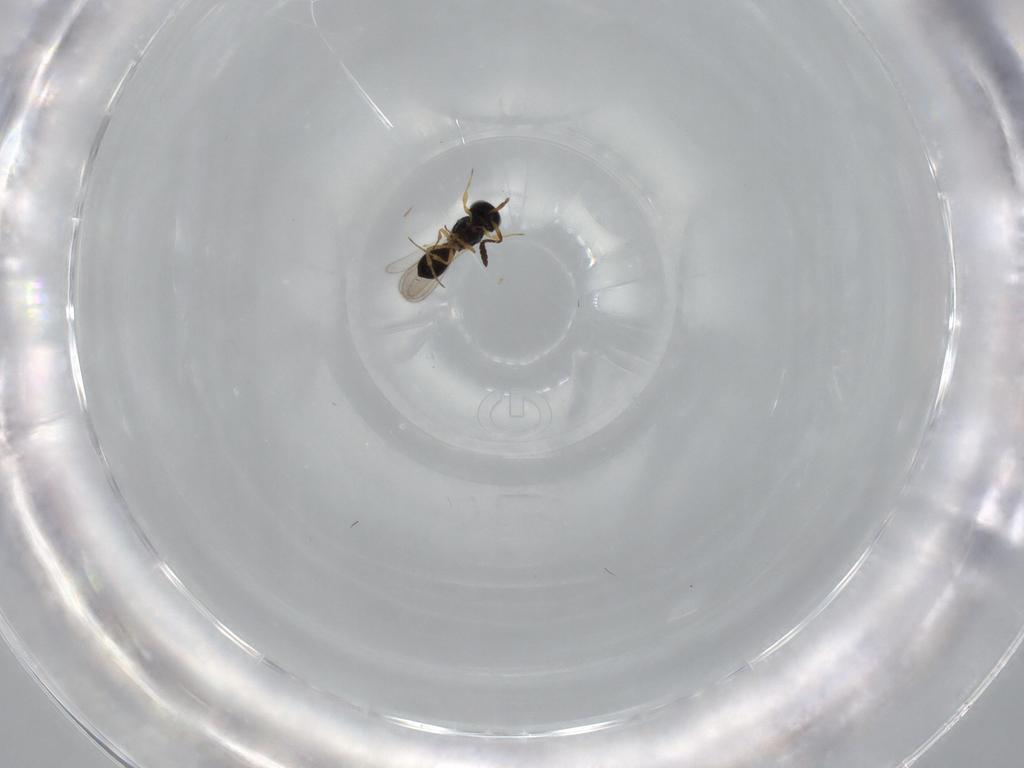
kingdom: Animalia
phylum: Arthropoda
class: Insecta
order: Hymenoptera
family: Scelionidae
